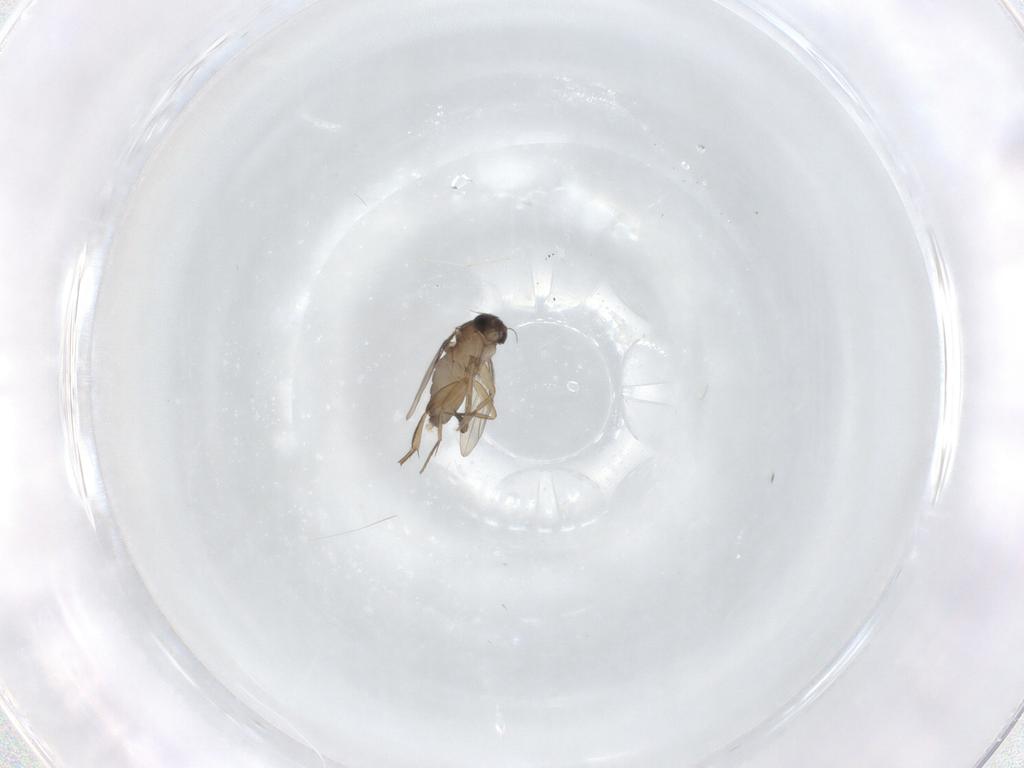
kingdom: Animalia
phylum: Arthropoda
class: Insecta
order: Diptera
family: Phoridae
